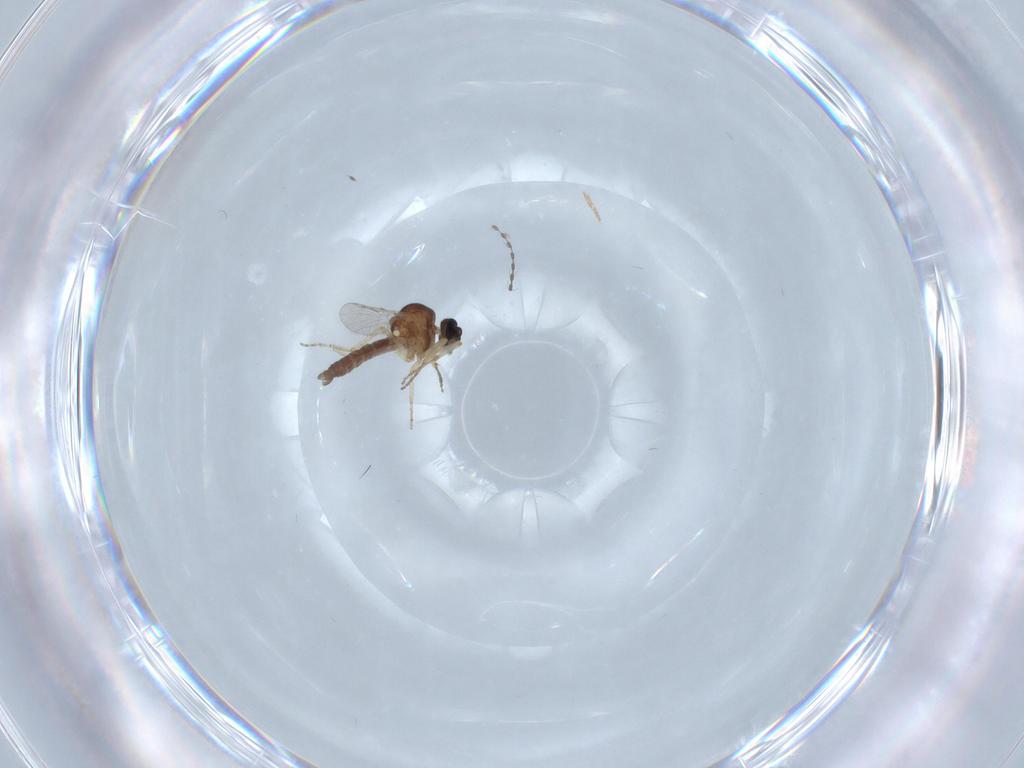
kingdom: Animalia
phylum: Arthropoda
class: Insecta
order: Diptera
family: Ceratopogonidae
